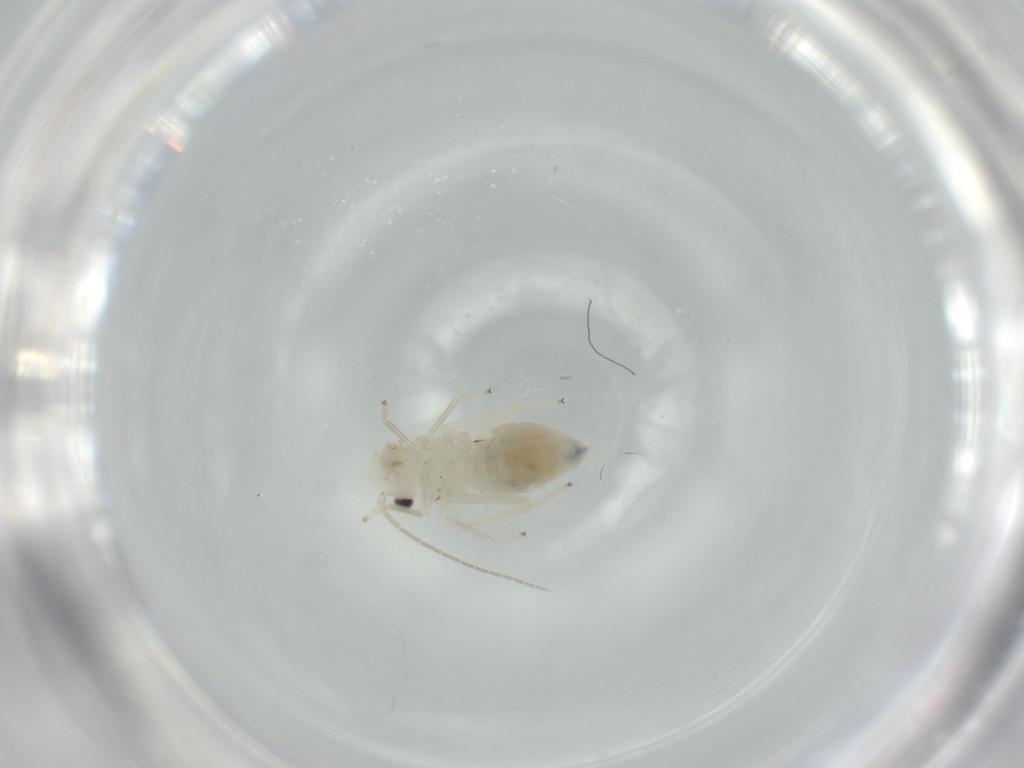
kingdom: Animalia
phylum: Arthropoda
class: Insecta
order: Psocodea
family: Caeciliusidae
